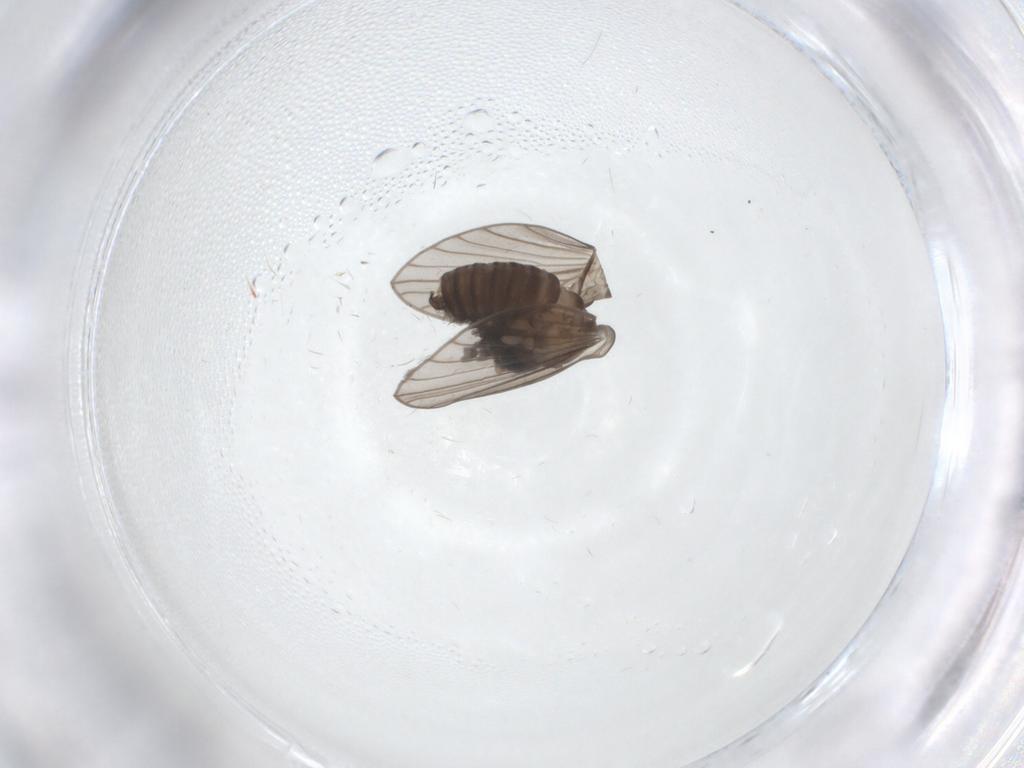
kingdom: Animalia
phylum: Arthropoda
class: Insecta
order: Diptera
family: Psychodidae
